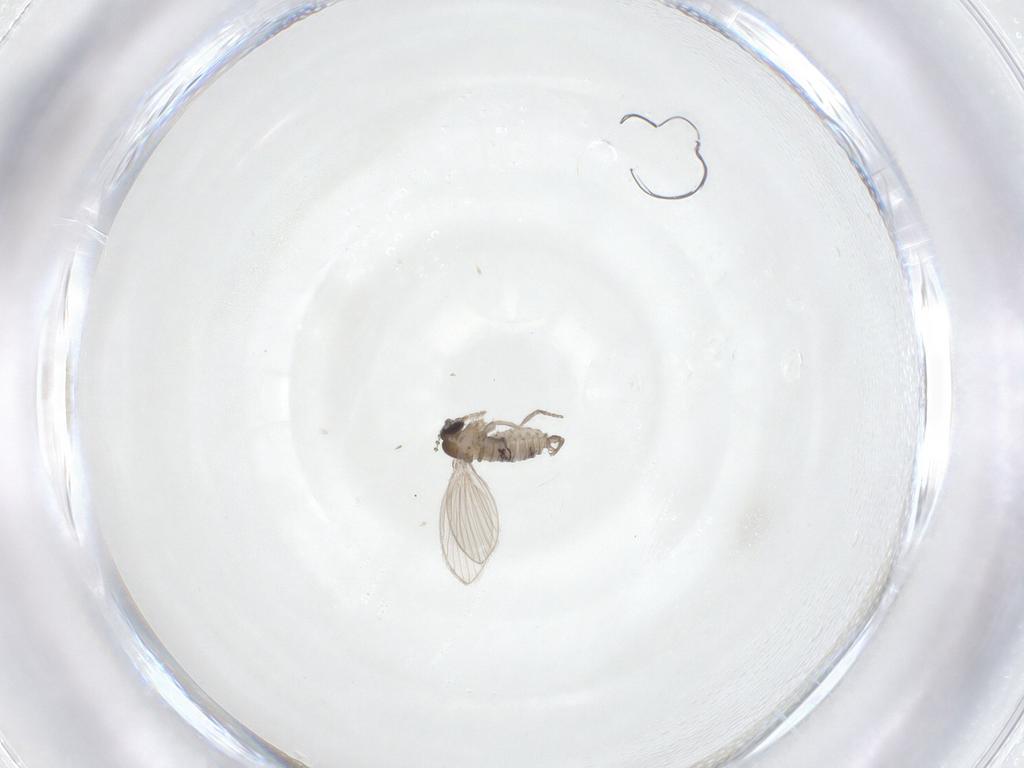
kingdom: Animalia
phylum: Arthropoda
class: Insecta
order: Diptera
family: Psychodidae
